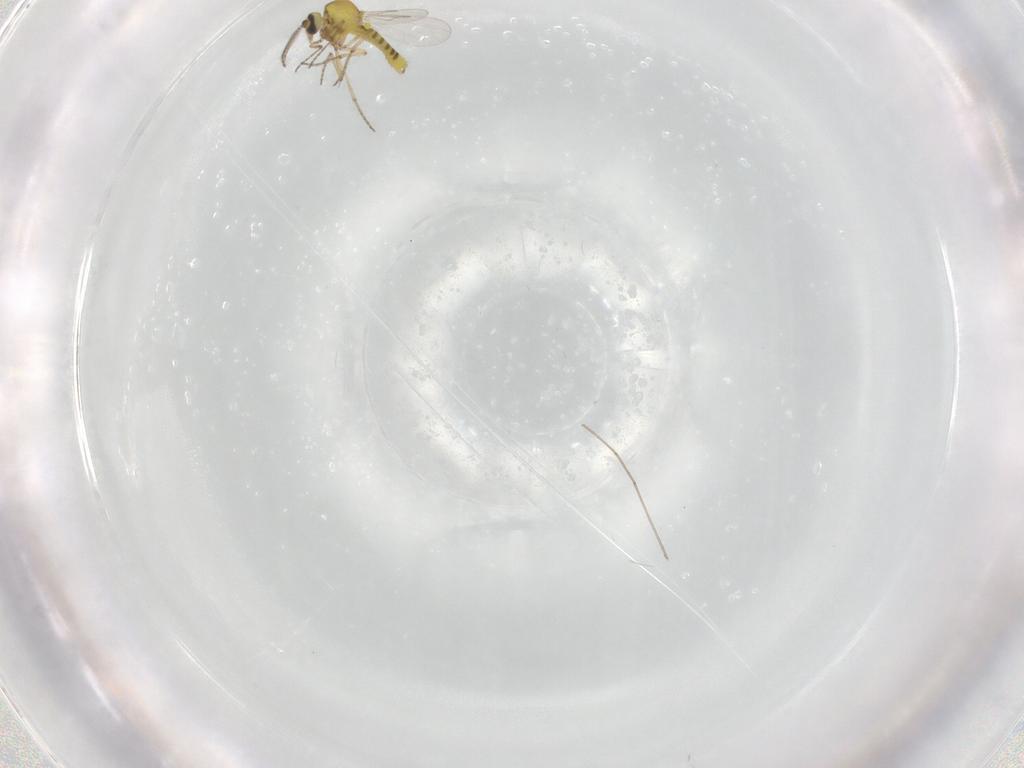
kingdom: Animalia
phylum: Arthropoda
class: Insecta
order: Diptera
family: Ceratopogonidae
